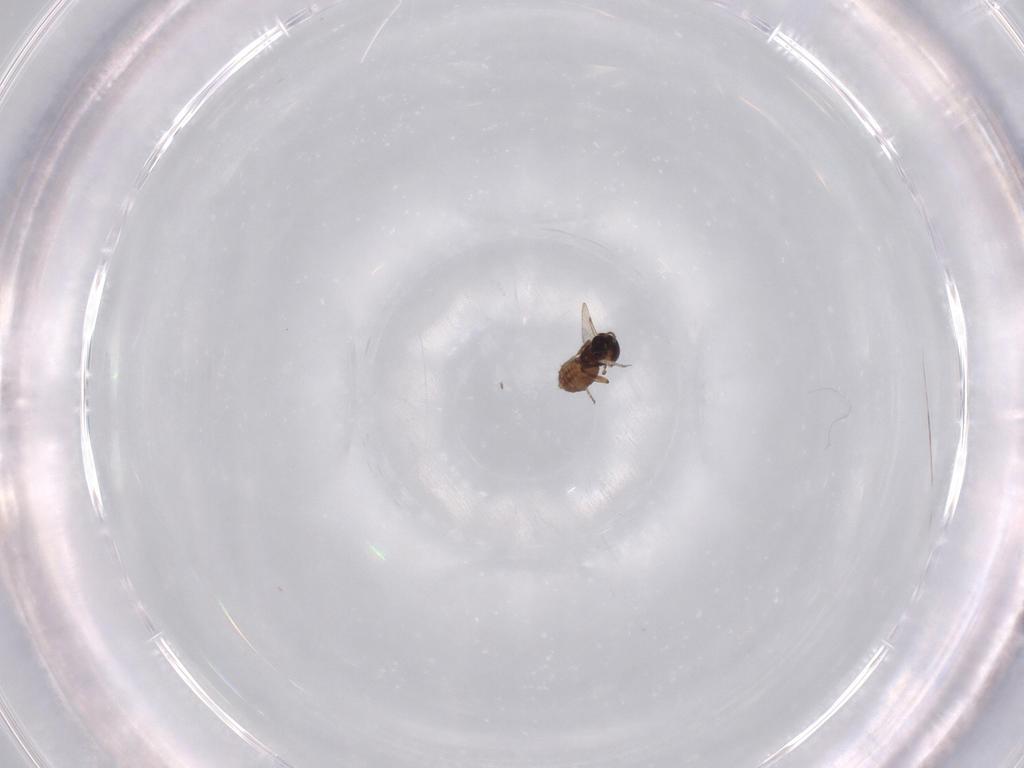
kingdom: Animalia
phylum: Arthropoda
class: Insecta
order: Diptera
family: Ceratopogonidae
